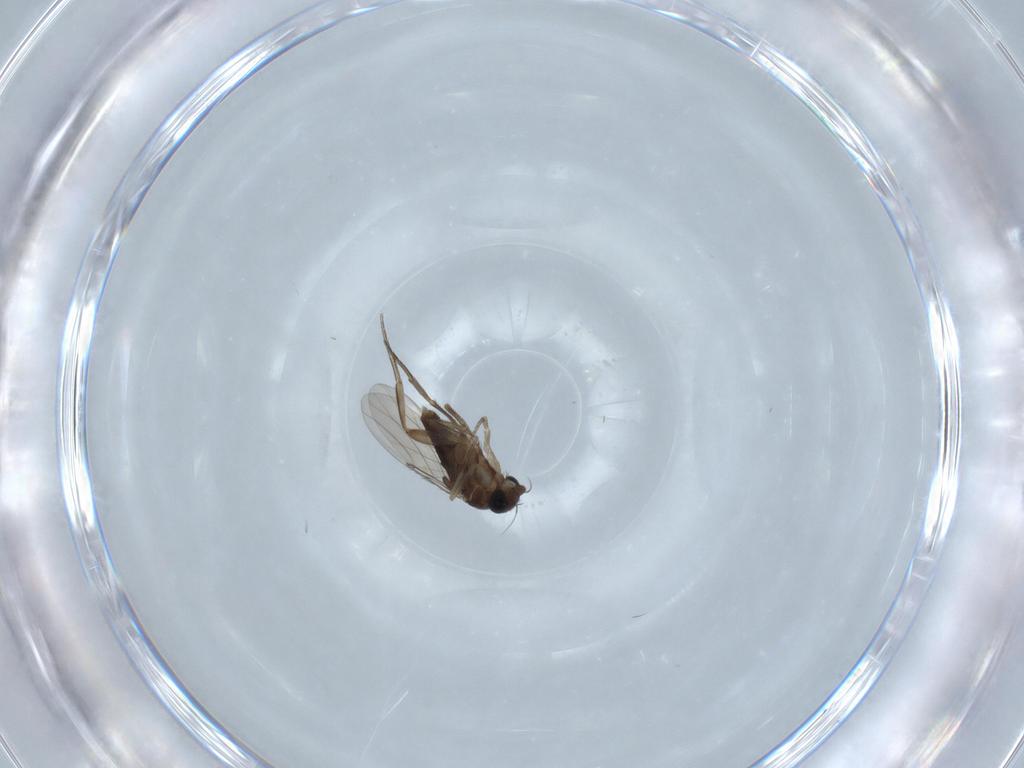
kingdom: Animalia
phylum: Arthropoda
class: Insecta
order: Diptera
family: Phoridae
